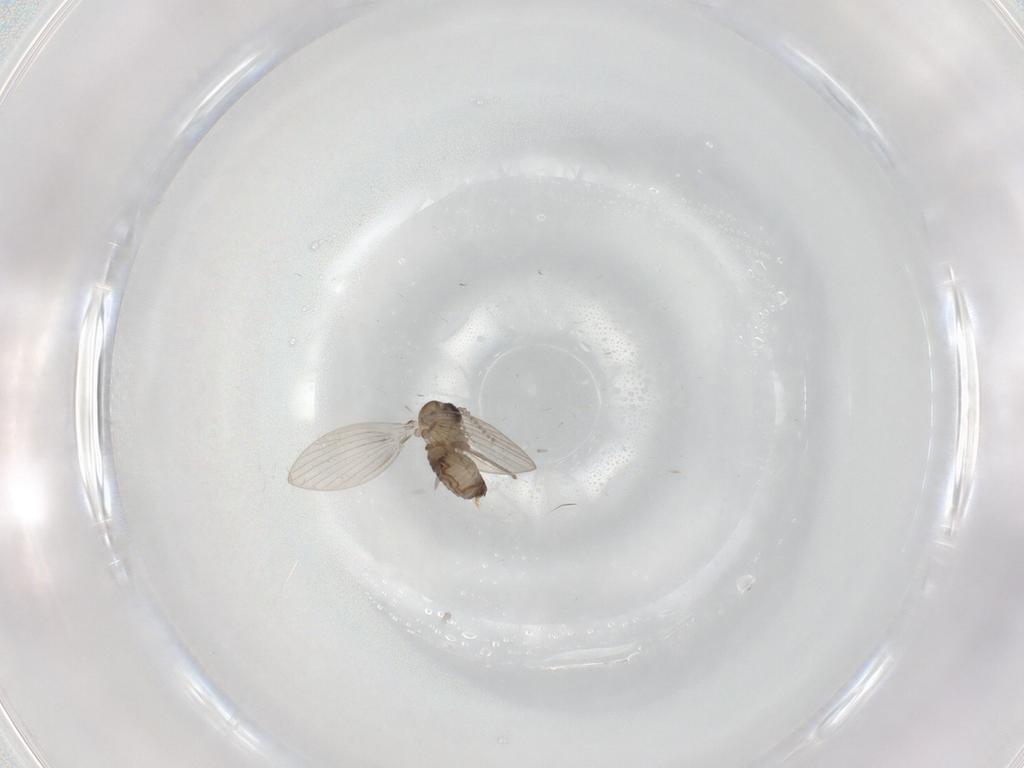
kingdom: Animalia
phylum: Arthropoda
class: Insecta
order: Diptera
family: Psychodidae
